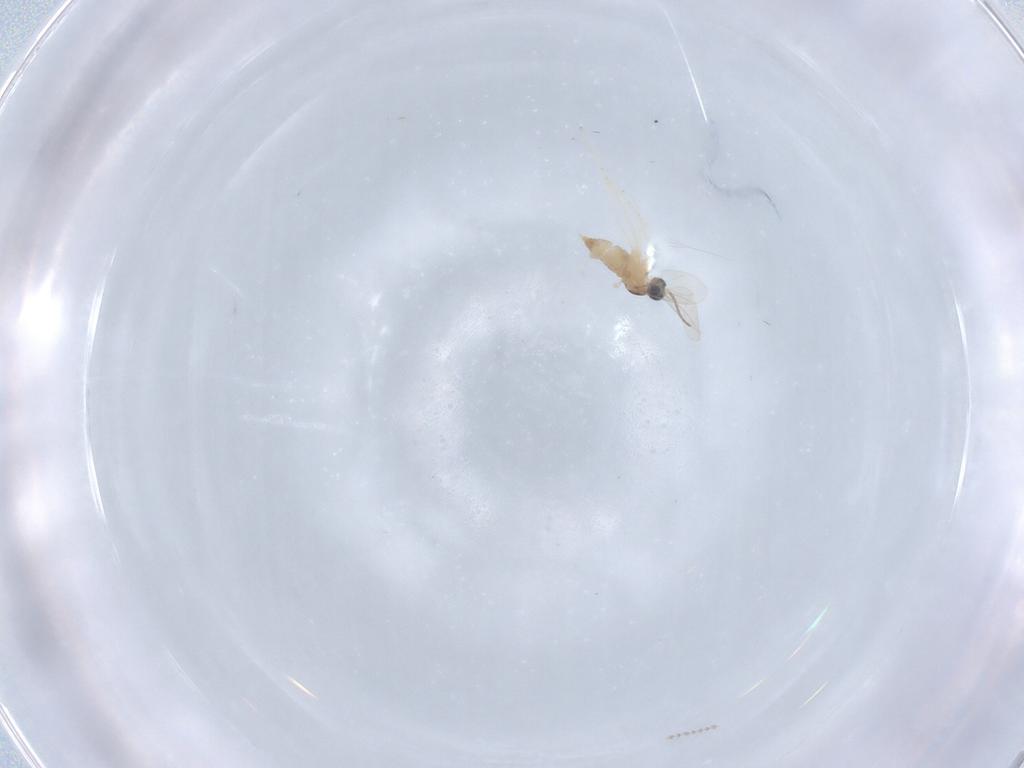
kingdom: Animalia
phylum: Arthropoda
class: Insecta
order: Diptera
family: Cecidomyiidae
